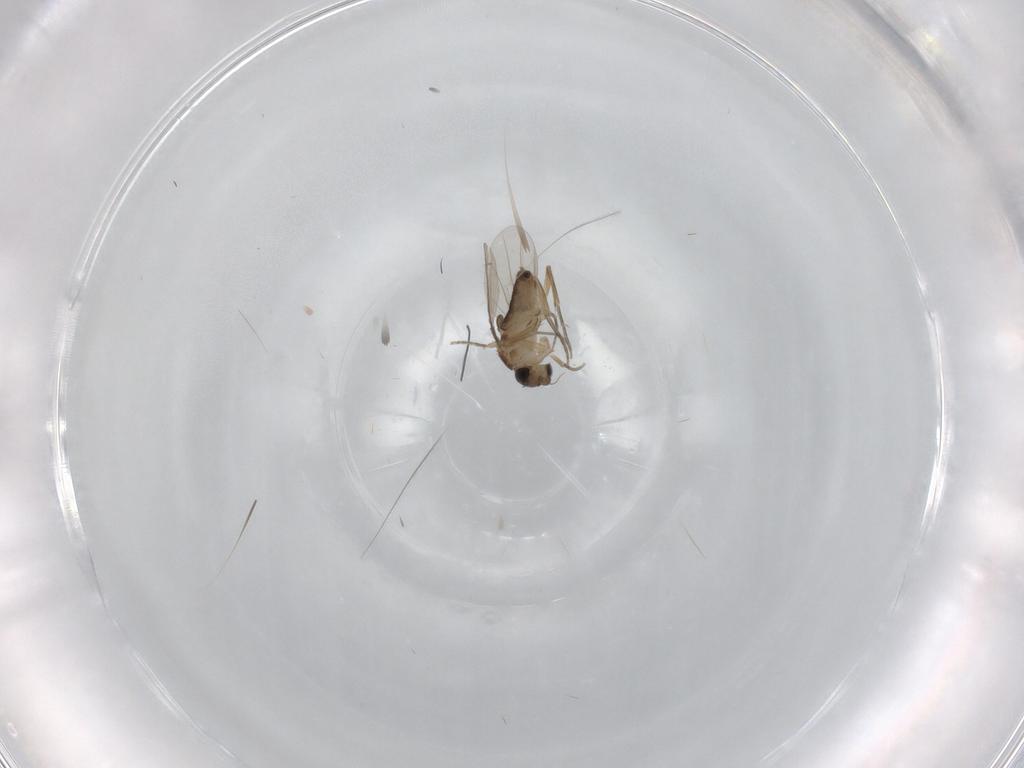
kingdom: Animalia
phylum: Arthropoda
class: Insecta
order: Diptera
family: Phoridae
